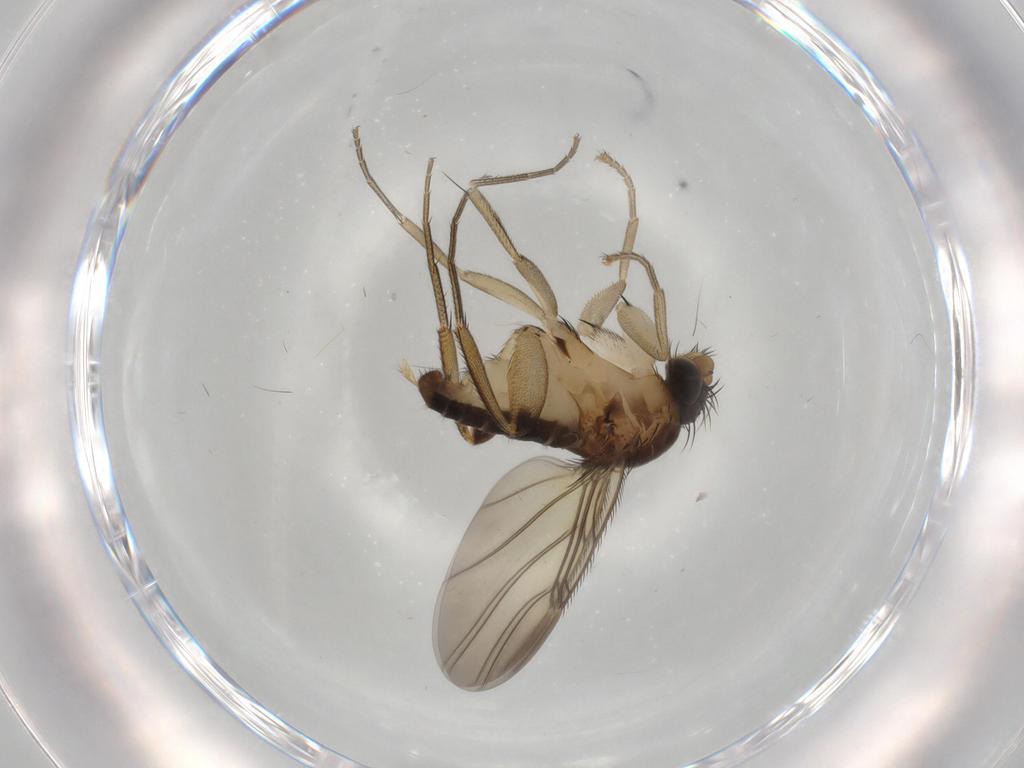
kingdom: Animalia
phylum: Arthropoda
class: Insecta
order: Diptera
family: Phoridae
